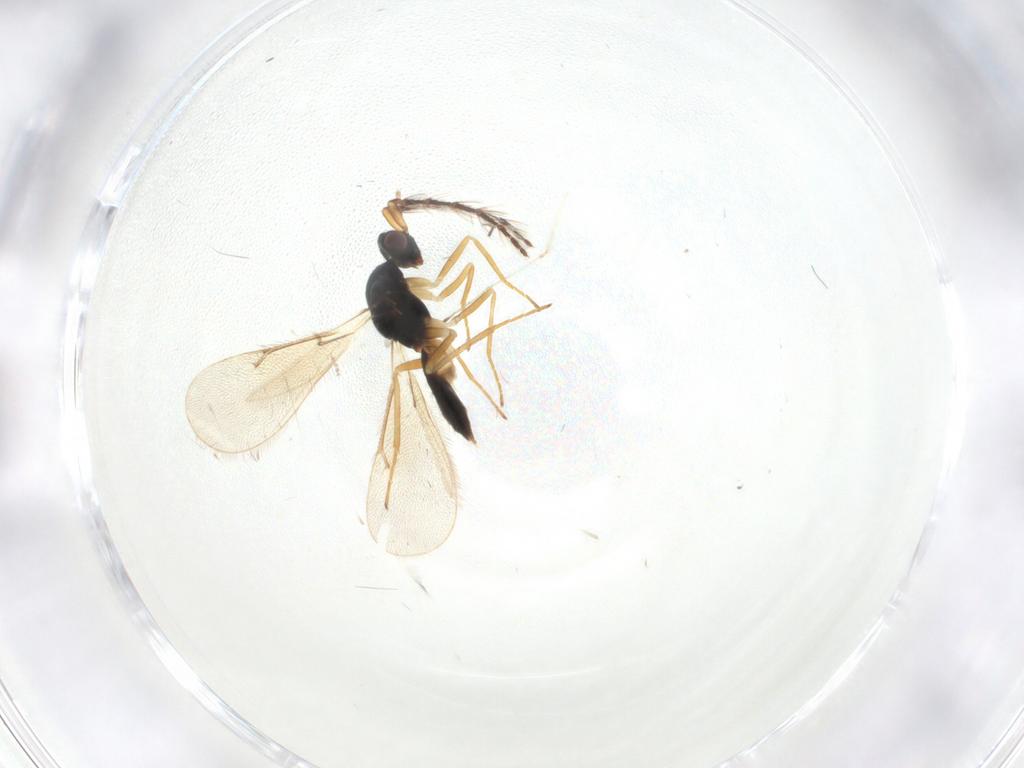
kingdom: Animalia
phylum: Arthropoda
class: Insecta
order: Hymenoptera
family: Eulophidae
